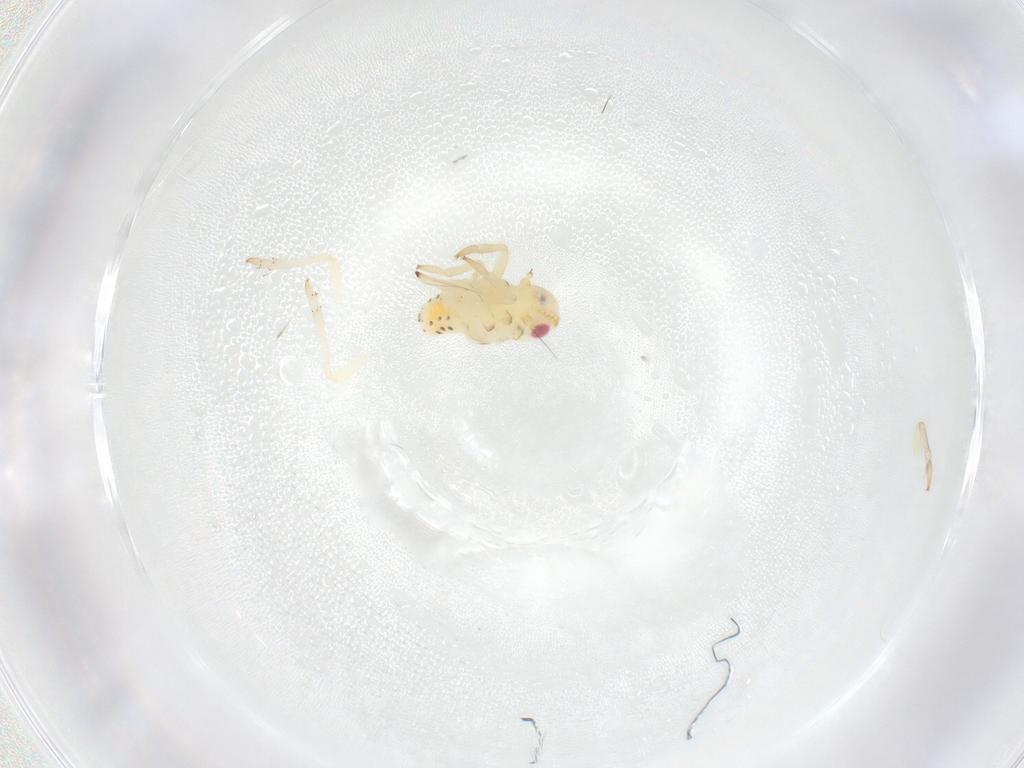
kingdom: Animalia
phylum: Arthropoda
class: Insecta
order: Hemiptera
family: Tropiduchidae
